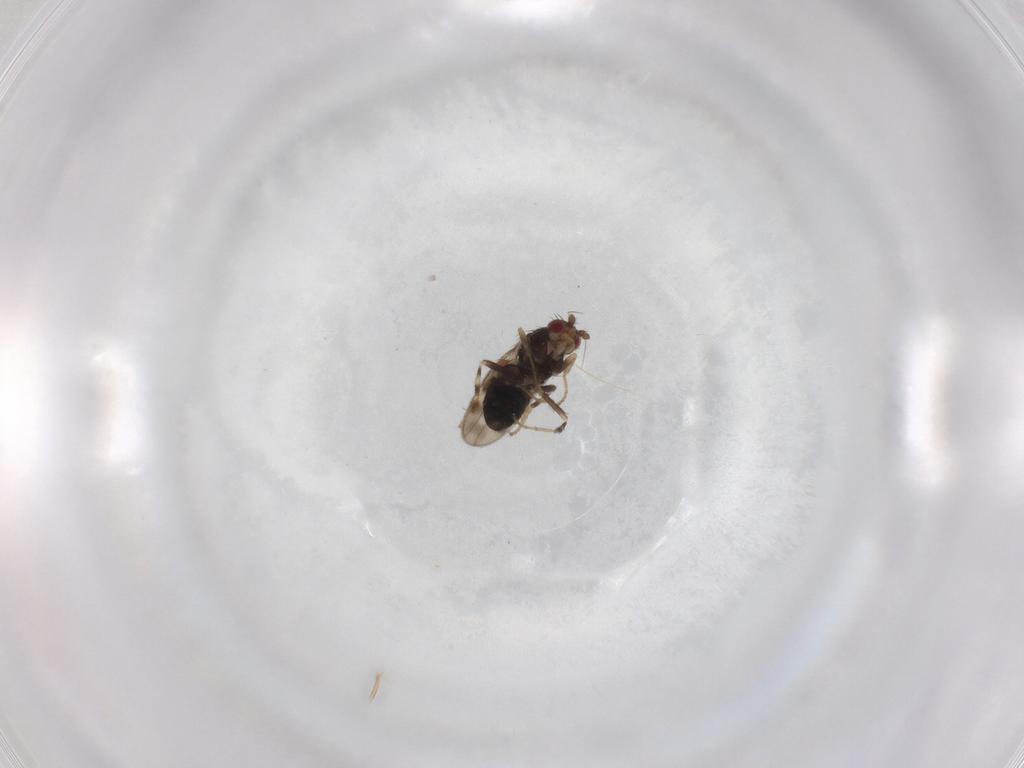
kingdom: Animalia
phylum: Arthropoda
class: Insecta
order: Diptera
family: Sphaeroceridae
